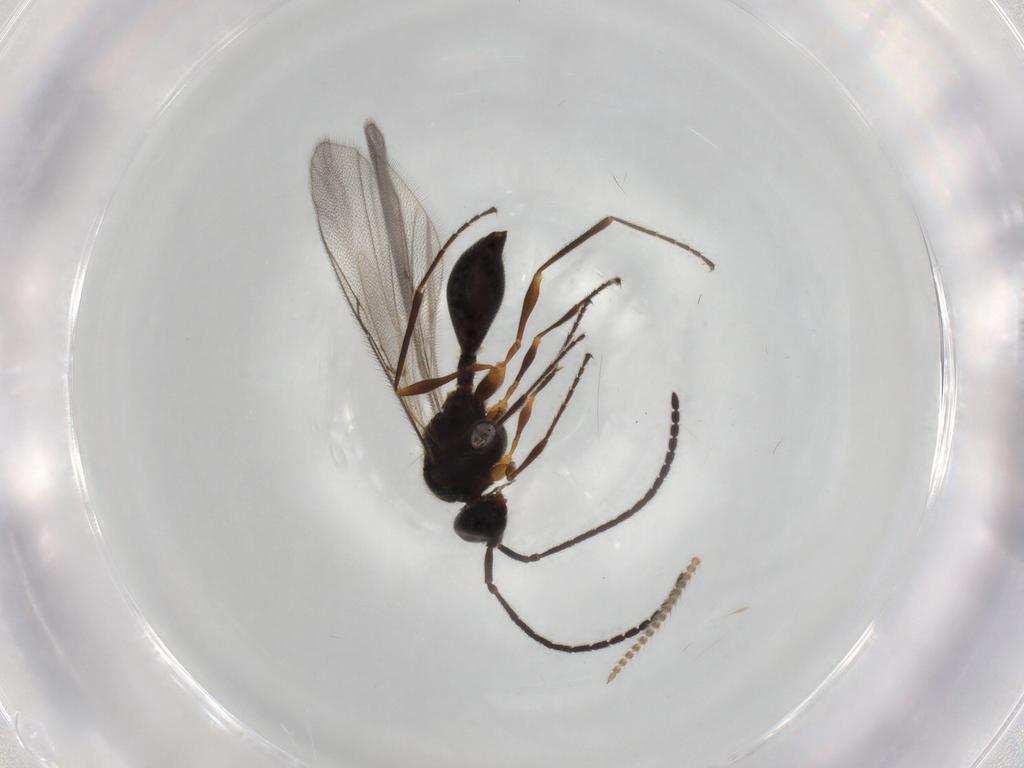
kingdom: Animalia
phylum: Arthropoda
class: Insecta
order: Hymenoptera
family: Diapriidae
